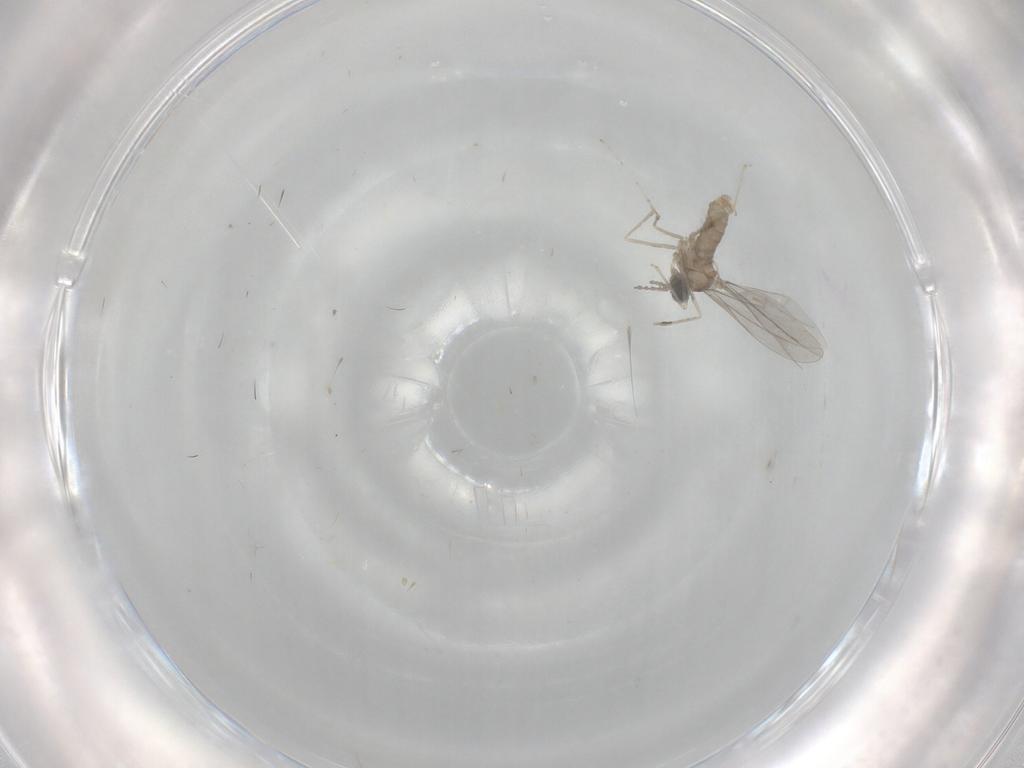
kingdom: Animalia
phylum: Arthropoda
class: Insecta
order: Diptera
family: Cecidomyiidae
